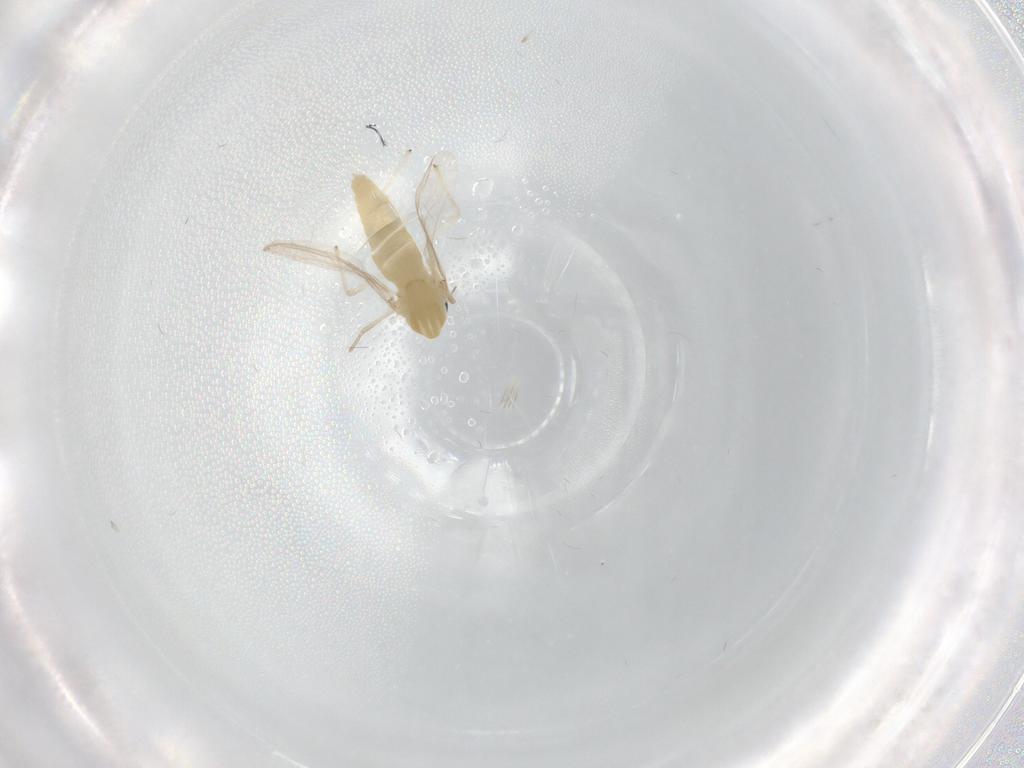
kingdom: Animalia
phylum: Arthropoda
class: Insecta
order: Diptera
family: Chironomidae
